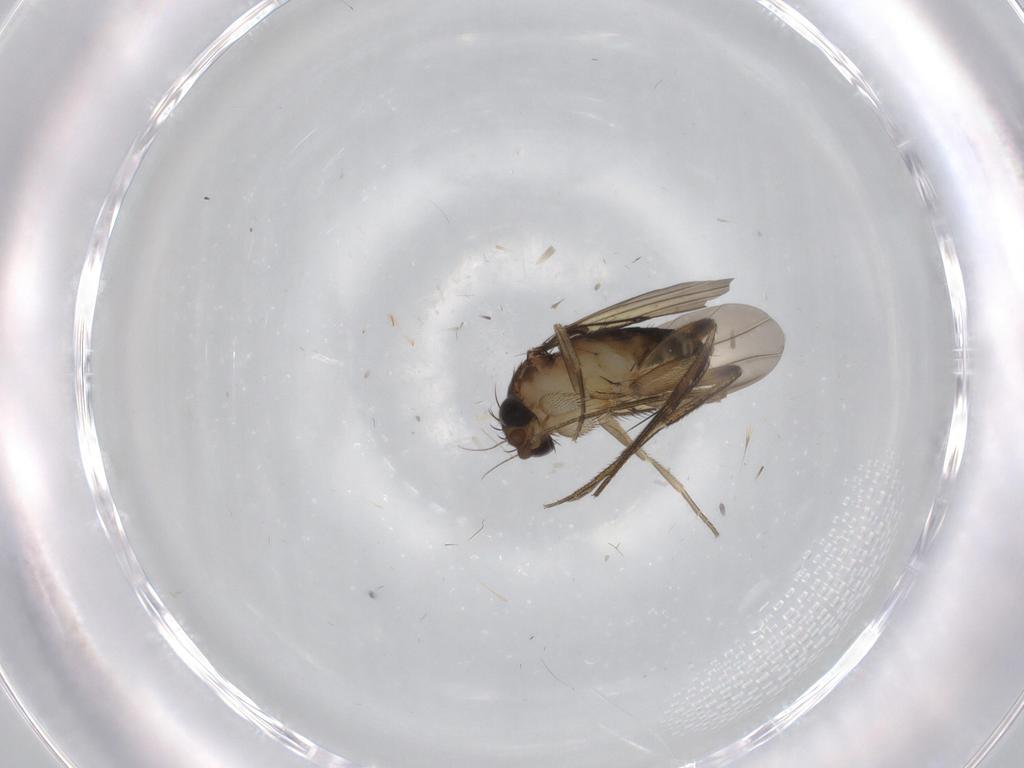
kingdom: Animalia
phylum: Arthropoda
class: Insecta
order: Diptera
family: Phoridae
